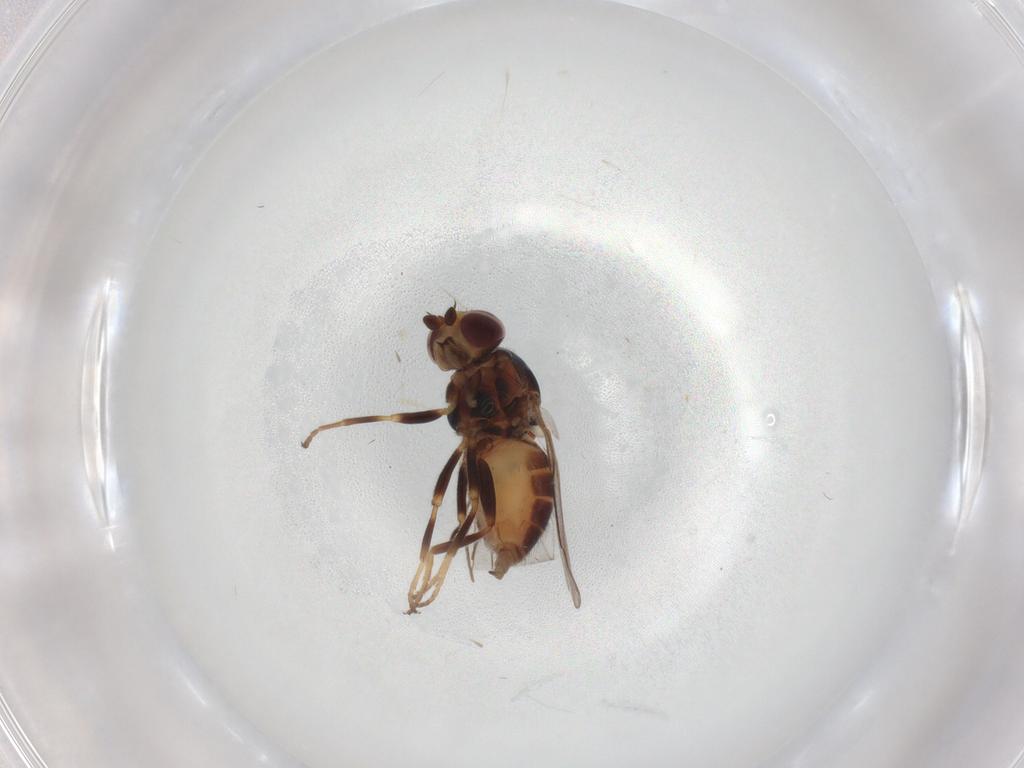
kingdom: Animalia
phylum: Arthropoda
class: Insecta
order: Diptera
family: Chloropidae
